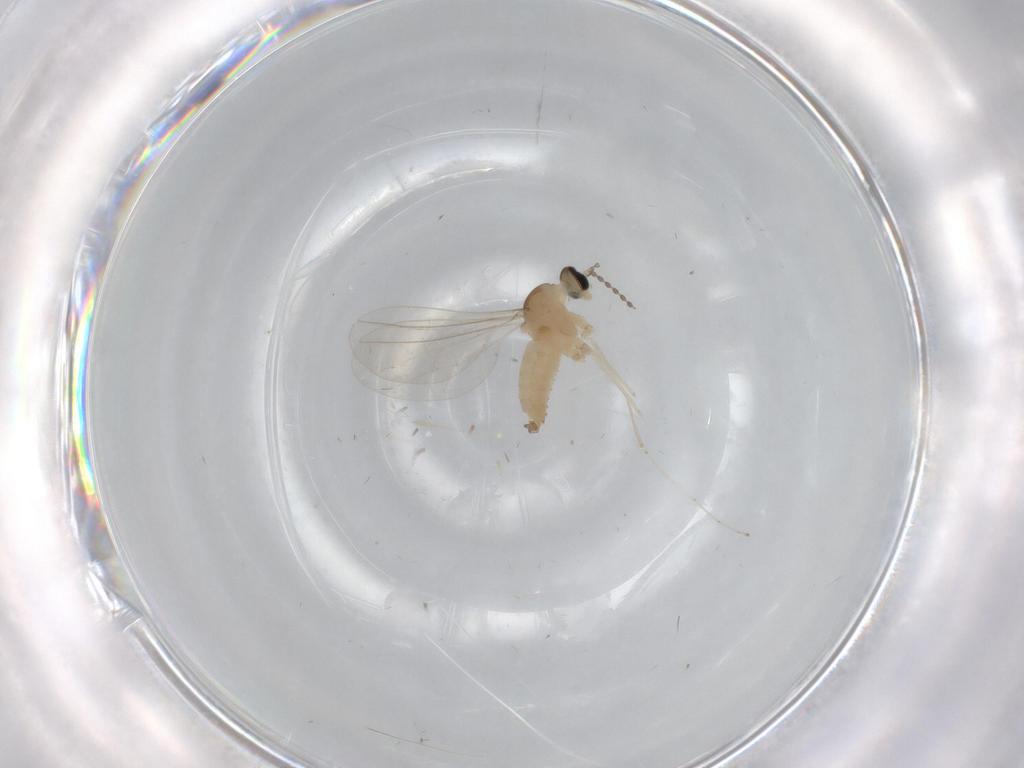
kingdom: Animalia
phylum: Arthropoda
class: Insecta
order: Diptera
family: Cecidomyiidae
